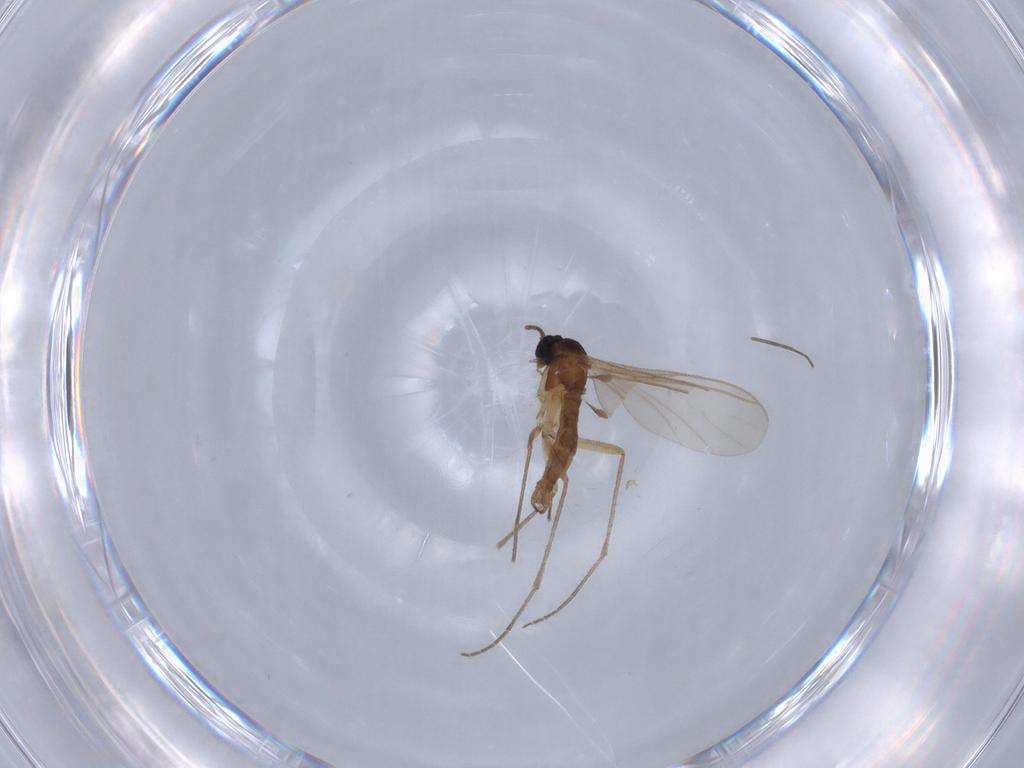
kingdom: Animalia
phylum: Arthropoda
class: Insecta
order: Diptera
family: Sciaridae
